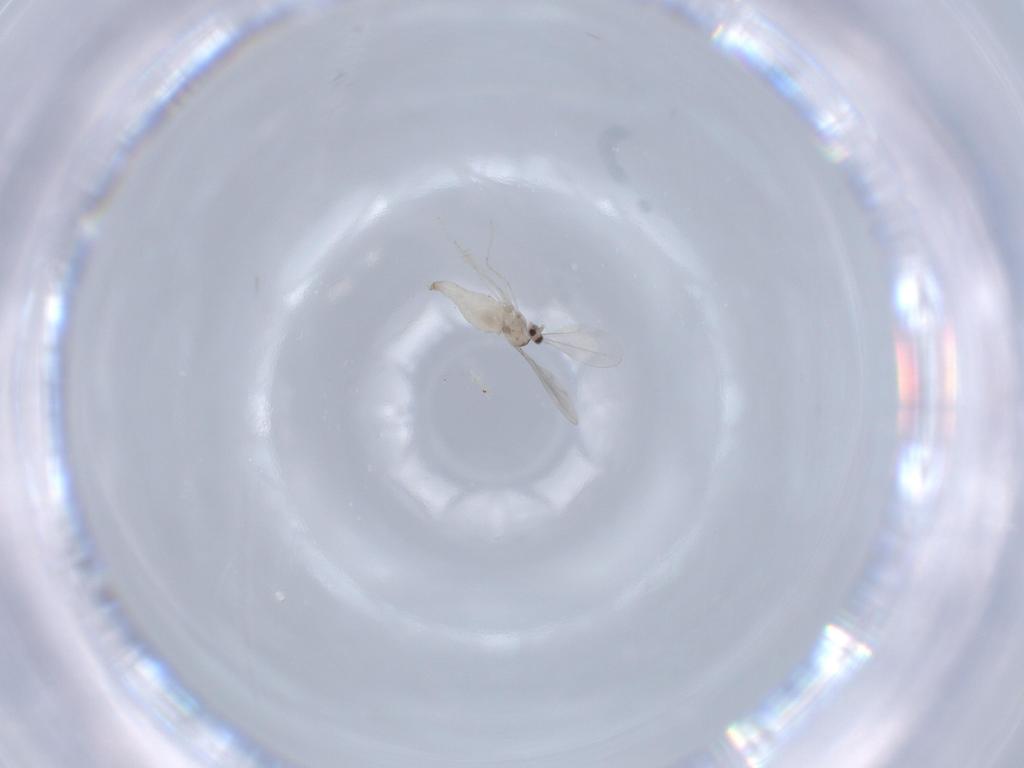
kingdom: Animalia
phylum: Arthropoda
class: Insecta
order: Diptera
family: Cecidomyiidae
